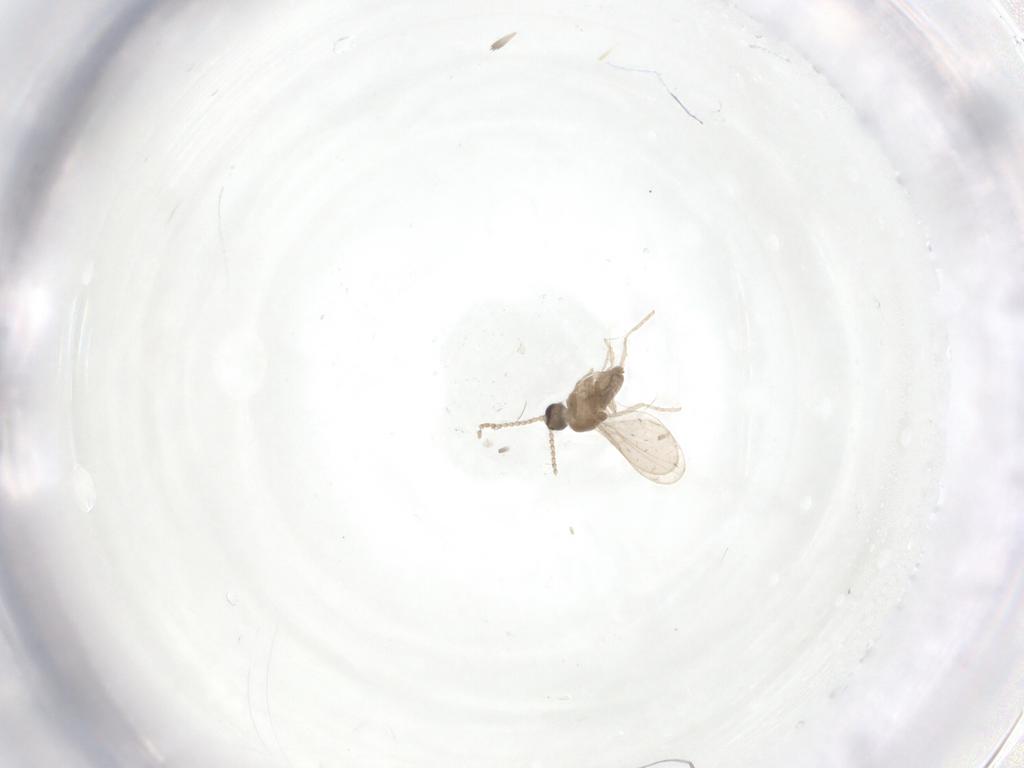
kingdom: Animalia
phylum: Arthropoda
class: Insecta
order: Diptera
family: Cecidomyiidae
